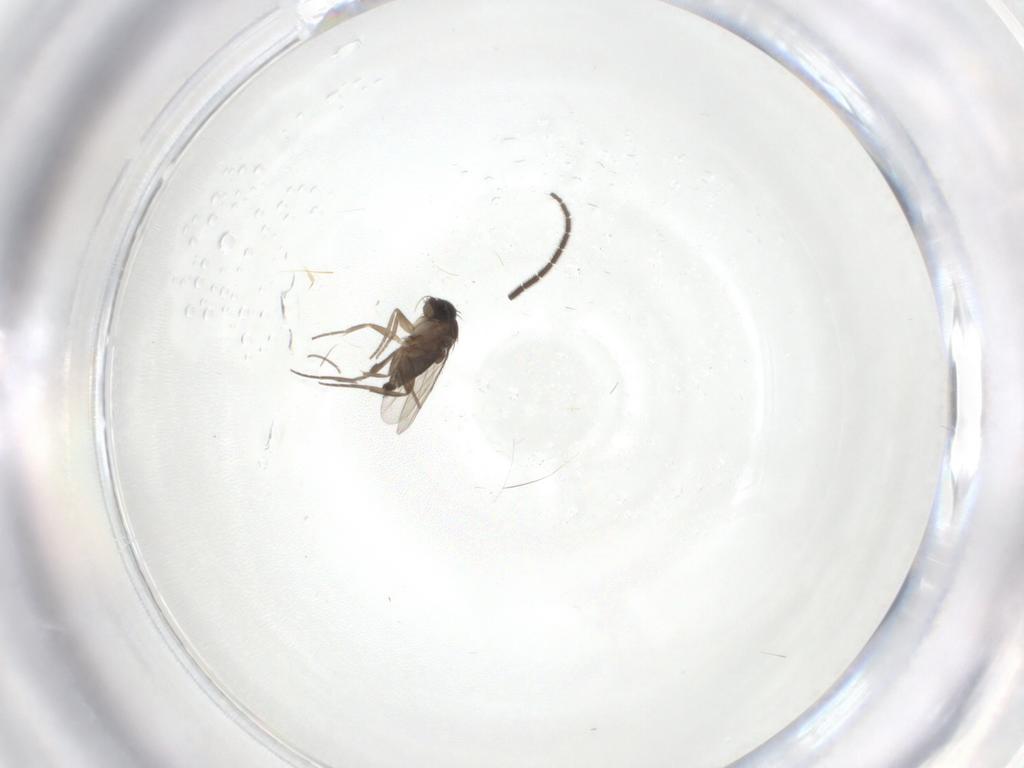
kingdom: Animalia
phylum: Arthropoda
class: Insecta
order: Diptera
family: Phoridae
